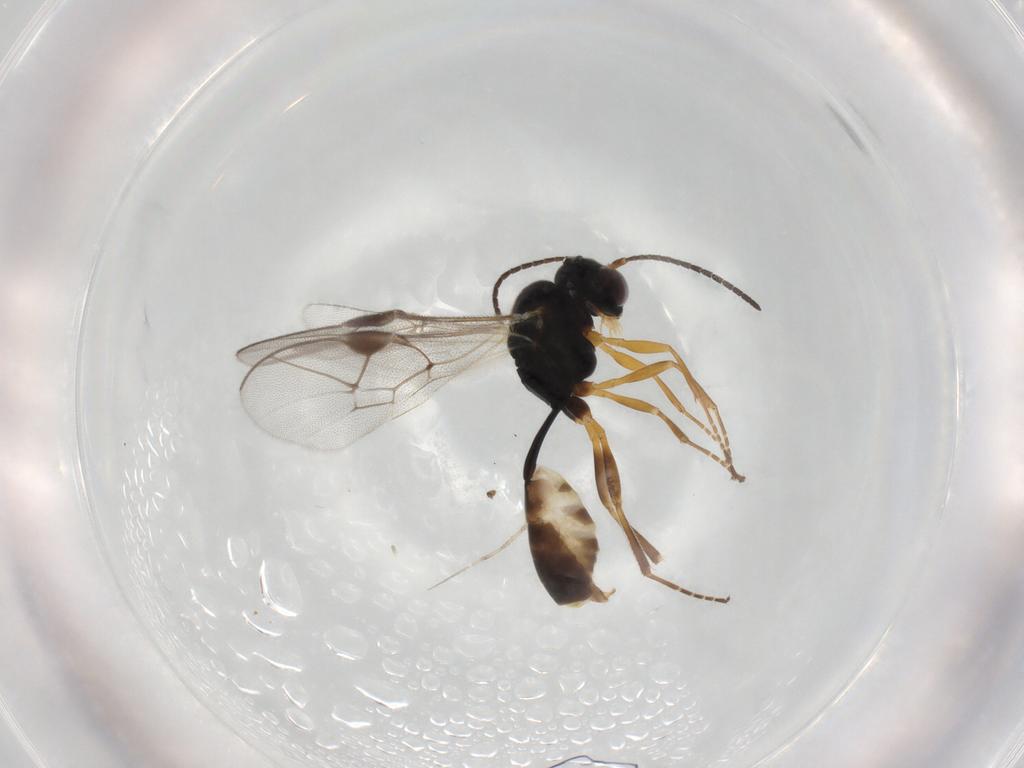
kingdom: Animalia
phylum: Arthropoda
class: Insecta
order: Hymenoptera
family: Ichneumonidae
